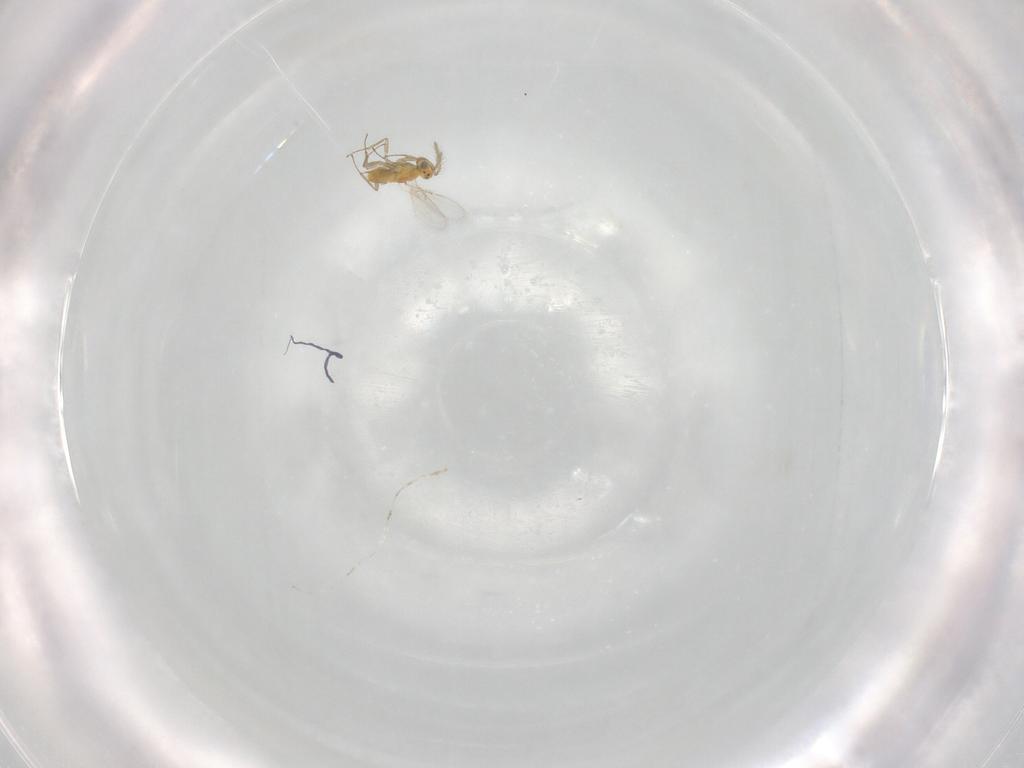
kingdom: Animalia
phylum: Arthropoda
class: Insecta
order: Hymenoptera
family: Aphelinidae
